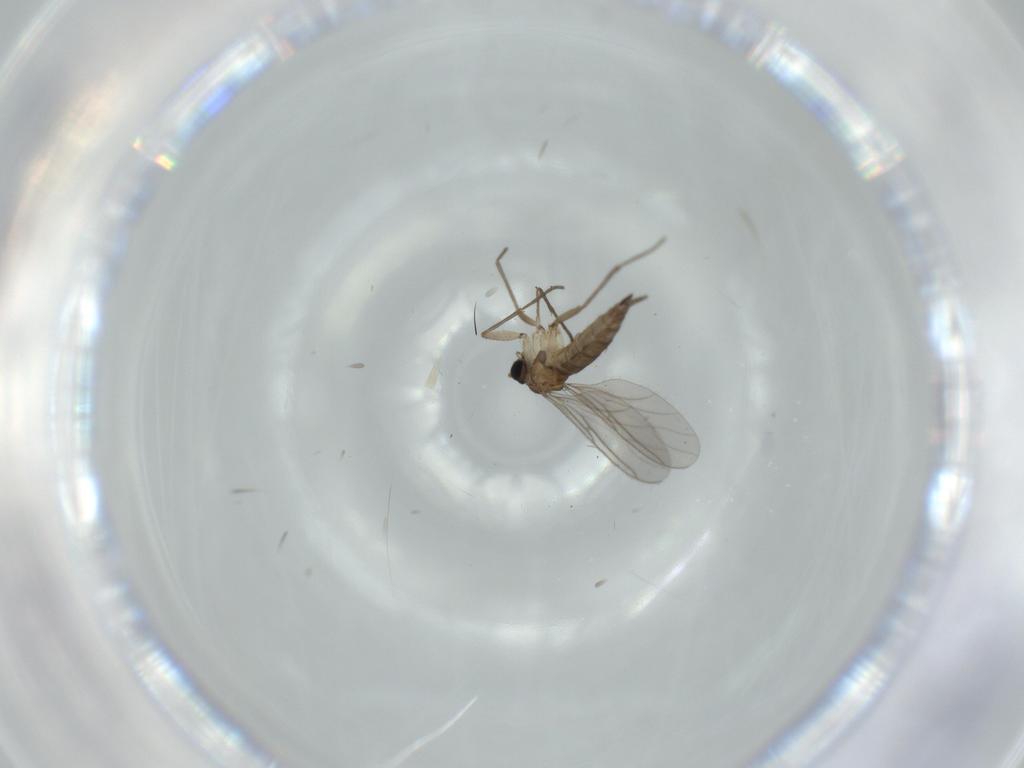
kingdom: Animalia
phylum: Arthropoda
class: Insecta
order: Diptera
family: Sciaridae
